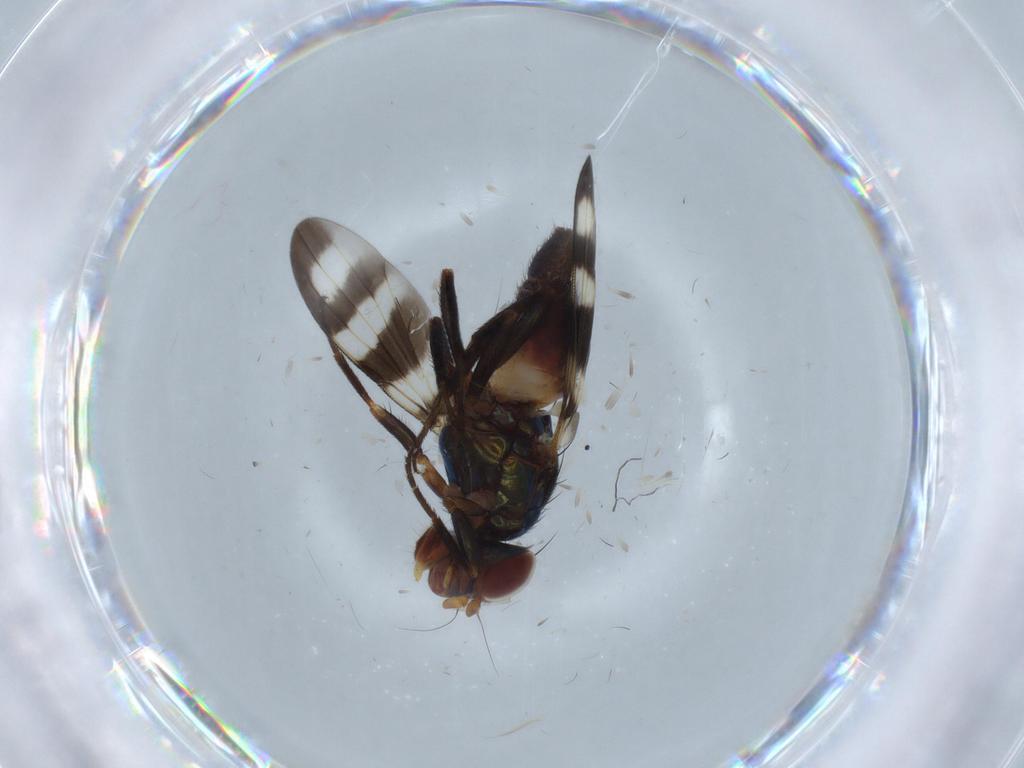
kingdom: Animalia
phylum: Arthropoda
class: Insecta
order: Diptera
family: Ulidiidae
